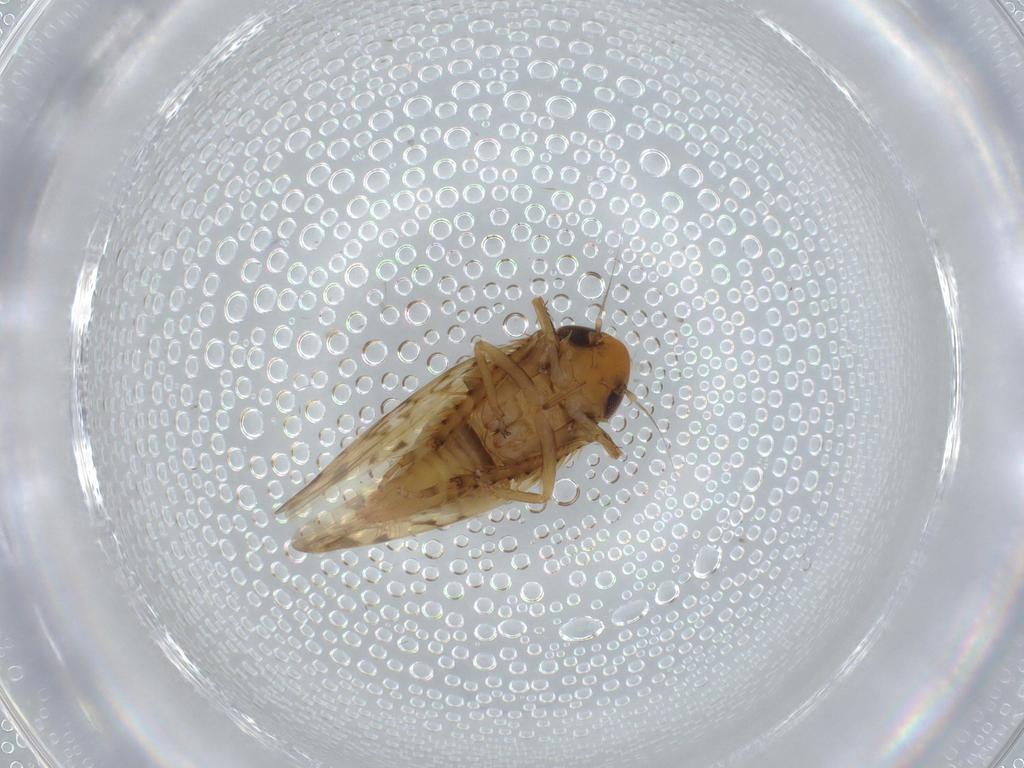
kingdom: Animalia
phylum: Arthropoda
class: Insecta
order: Hemiptera
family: Cicadellidae
